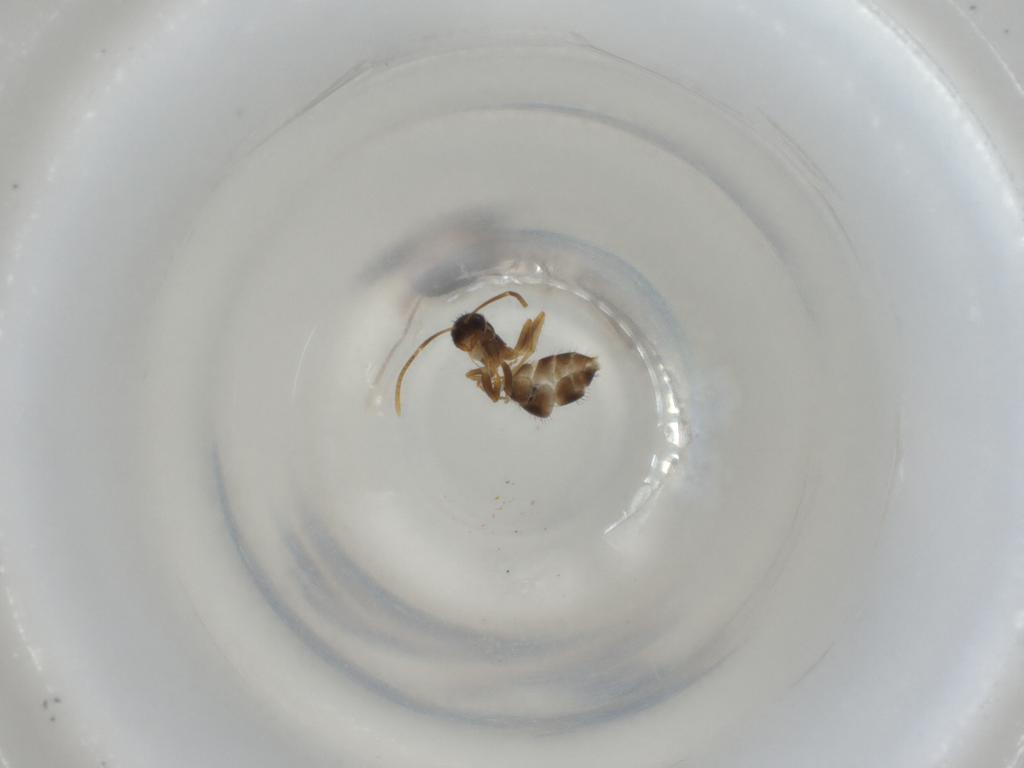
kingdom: Animalia
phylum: Arthropoda
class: Insecta
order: Hymenoptera
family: Formicidae
